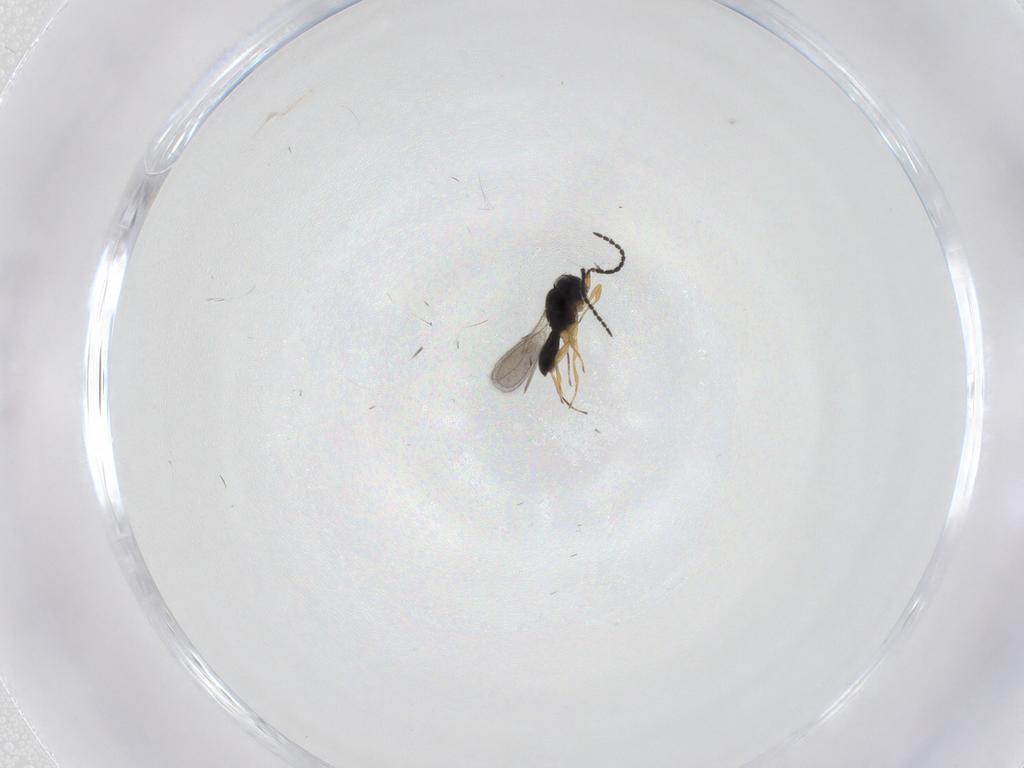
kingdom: Animalia
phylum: Arthropoda
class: Insecta
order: Hymenoptera
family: Scelionidae
